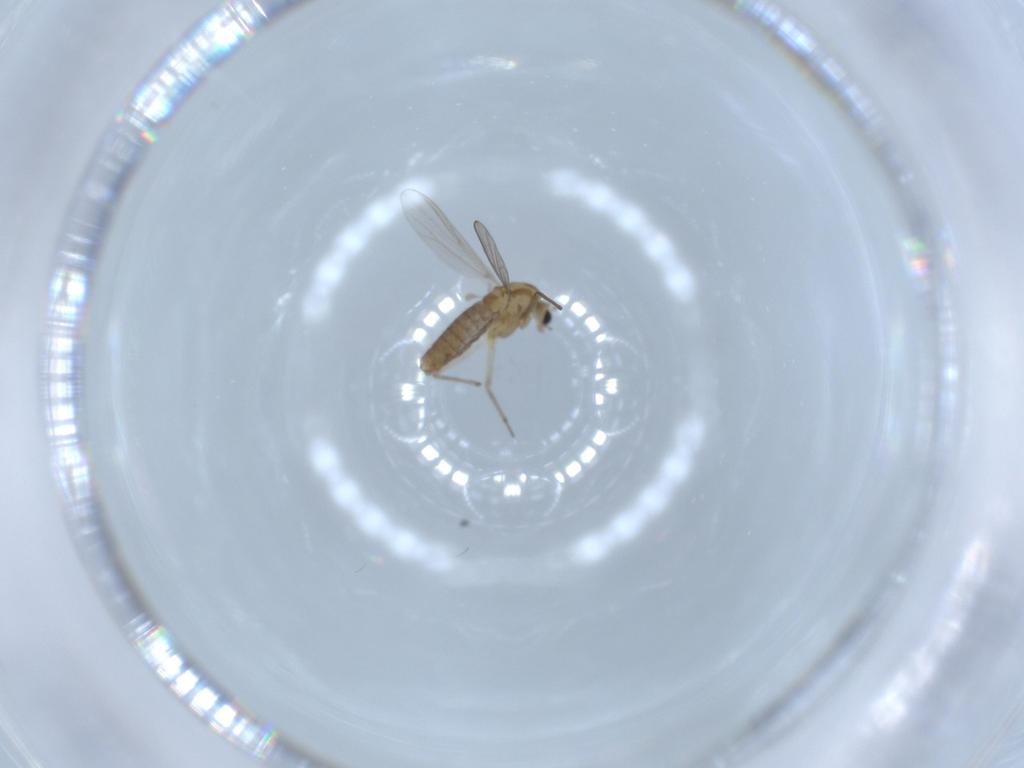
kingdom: Animalia
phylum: Arthropoda
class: Insecta
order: Diptera
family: Chironomidae
